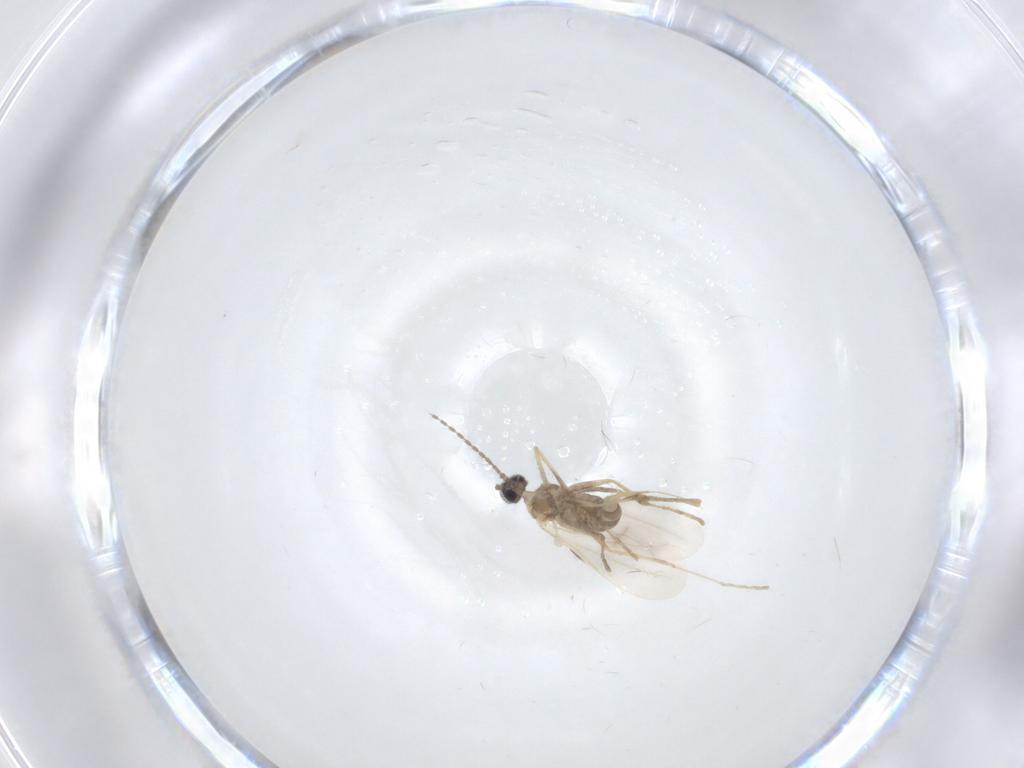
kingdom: Animalia
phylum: Arthropoda
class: Insecta
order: Diptera
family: Cecidomyiidae
